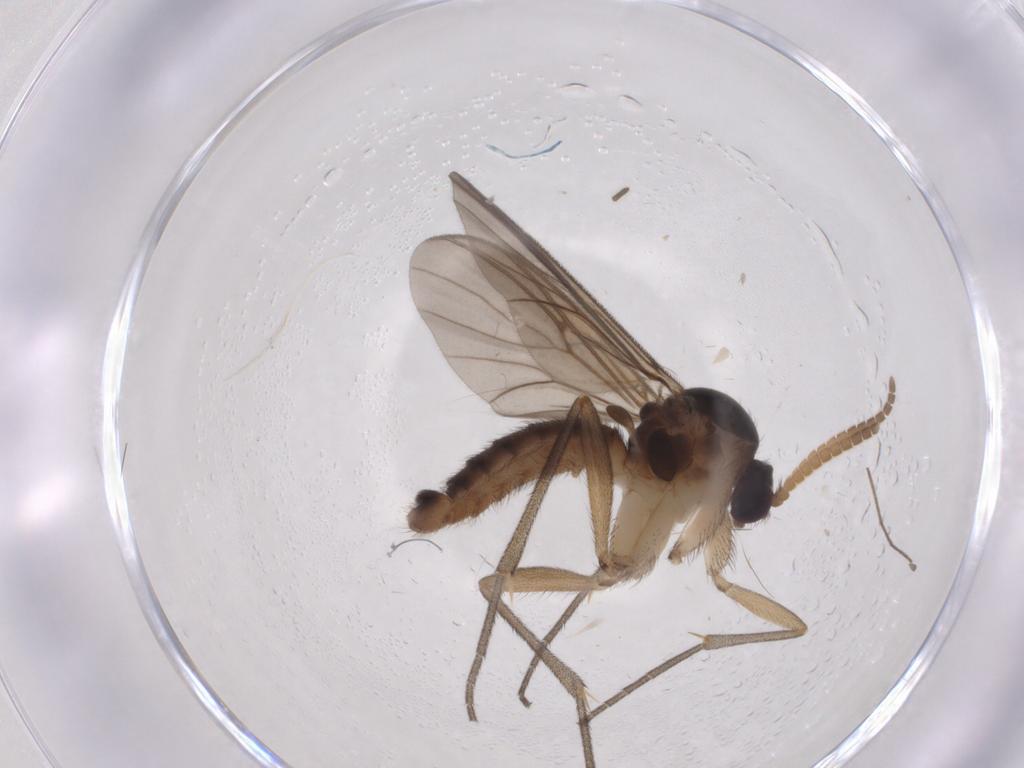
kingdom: Animalia
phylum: Arthropoda
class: Insecta
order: Diptera
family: Mycetophilidae
